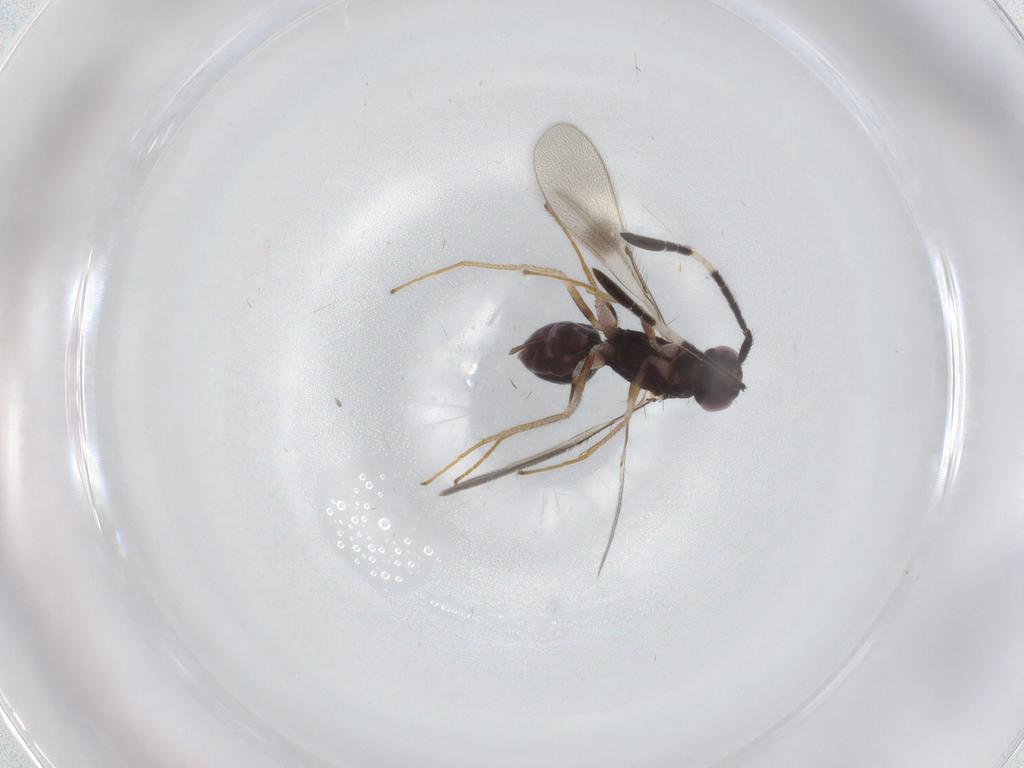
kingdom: Animalia
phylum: Arthropoda
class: Insecta
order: Hymenoptera
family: Mymaridae
